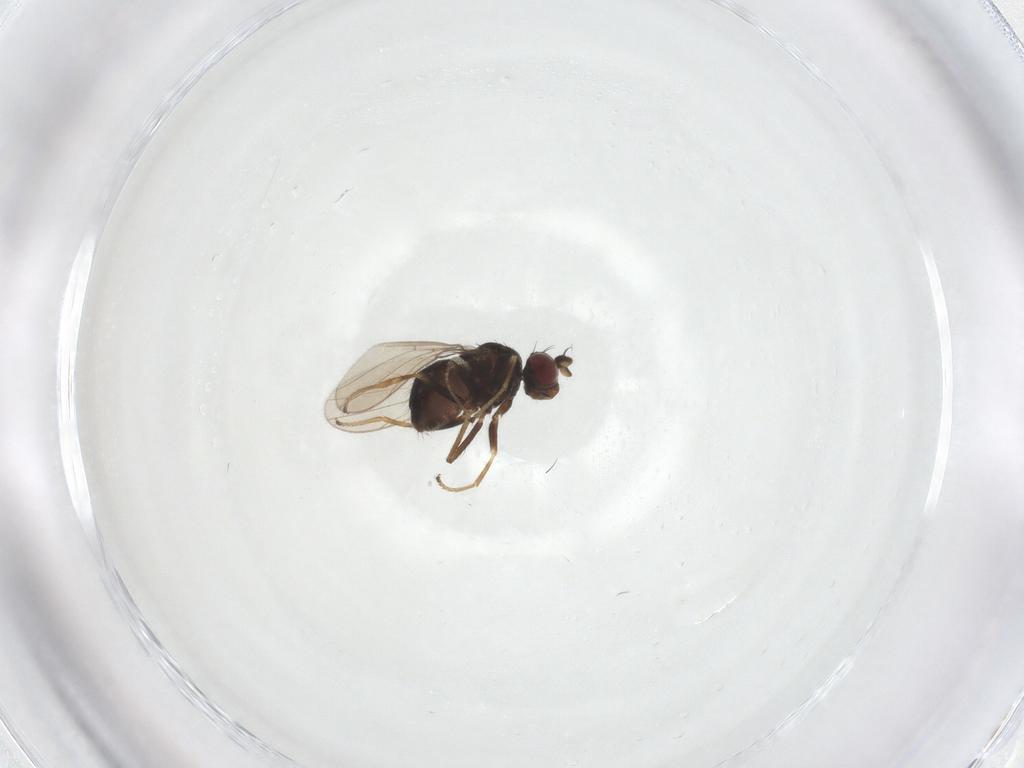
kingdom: Animalia
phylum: Arthropoda
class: Insecta
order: Diptera
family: Ephydridae
